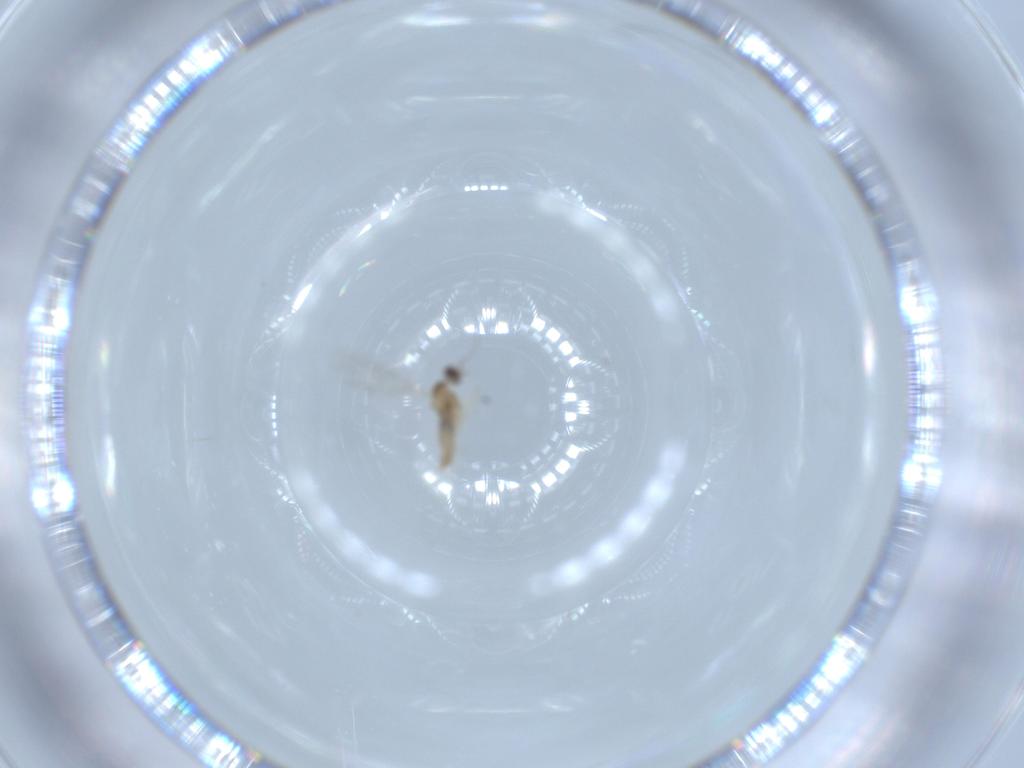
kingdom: Animalia
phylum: Arthropoda
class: Insecta
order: Diptera
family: Cecidomyiidae
